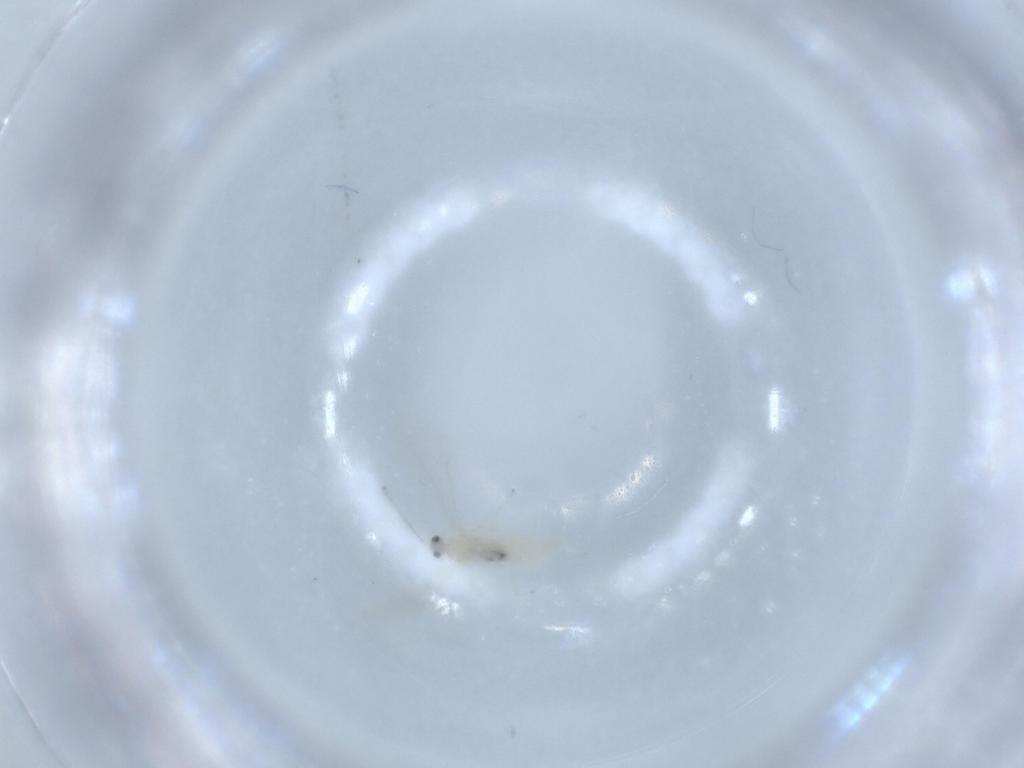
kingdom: Animalia
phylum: Arthropoda
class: Insecta
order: Diptera
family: Cecidomyiidae
